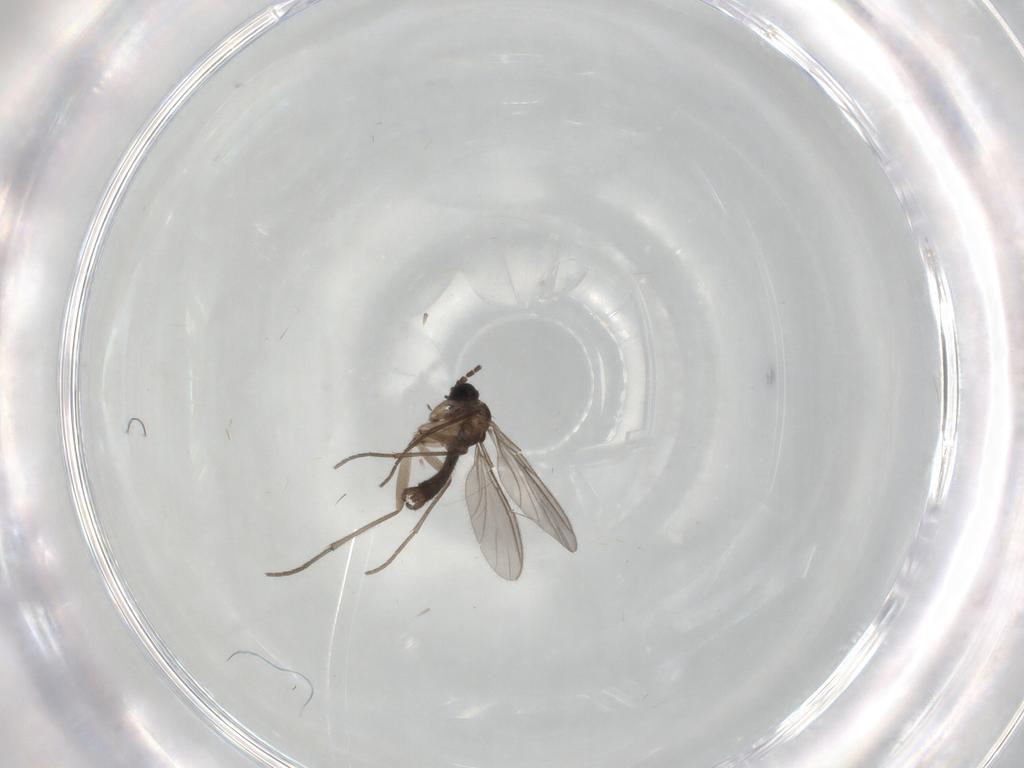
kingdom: Animalia
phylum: Arthropoda
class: Insecta
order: Diptera
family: Sciaridae
